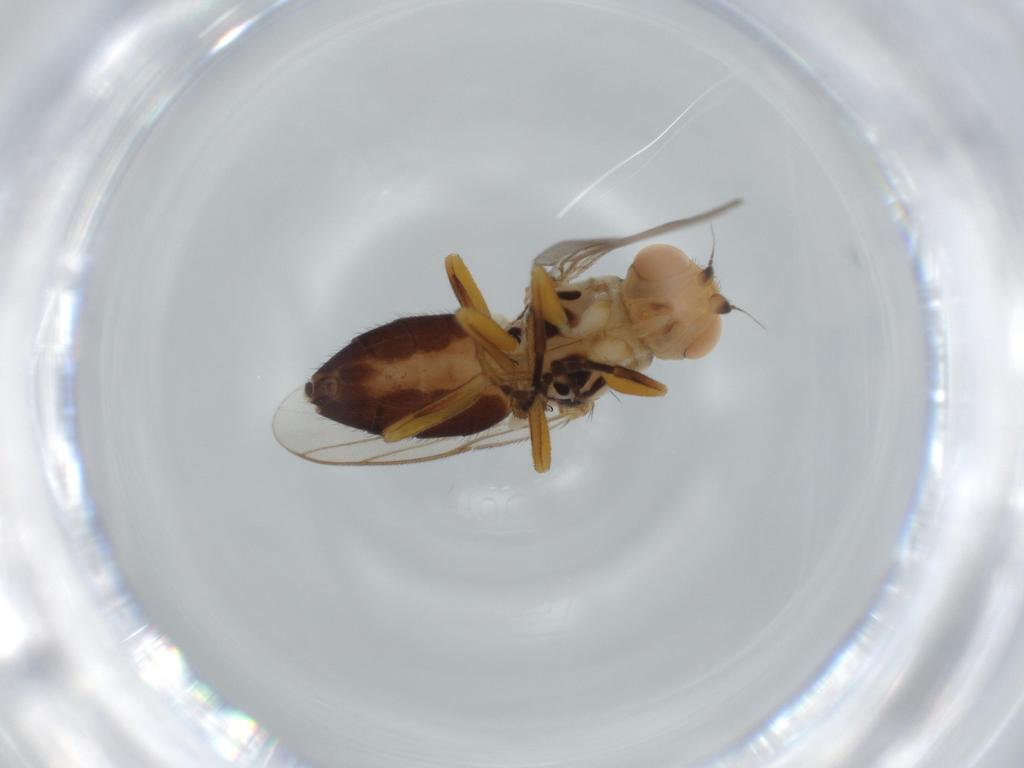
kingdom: Animalia
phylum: Arthropoda
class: Insecta
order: Diptera
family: Chloropidae
